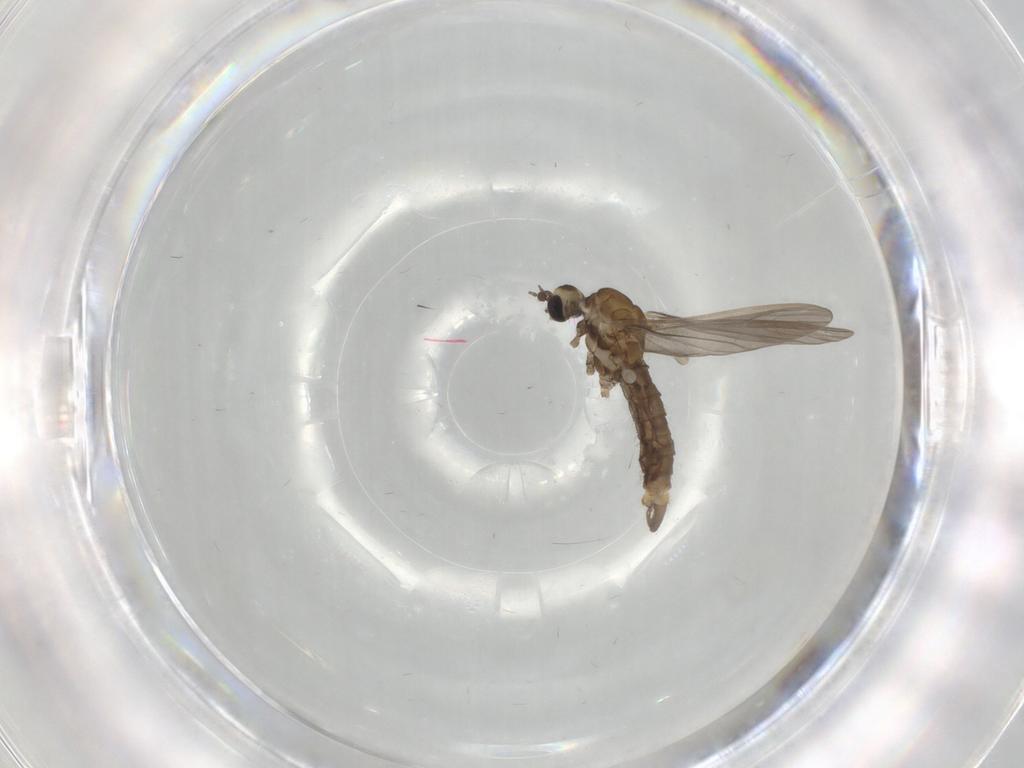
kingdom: Animalia
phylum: Arthropoda
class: Insecta
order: Diptera
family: Limoniidae
